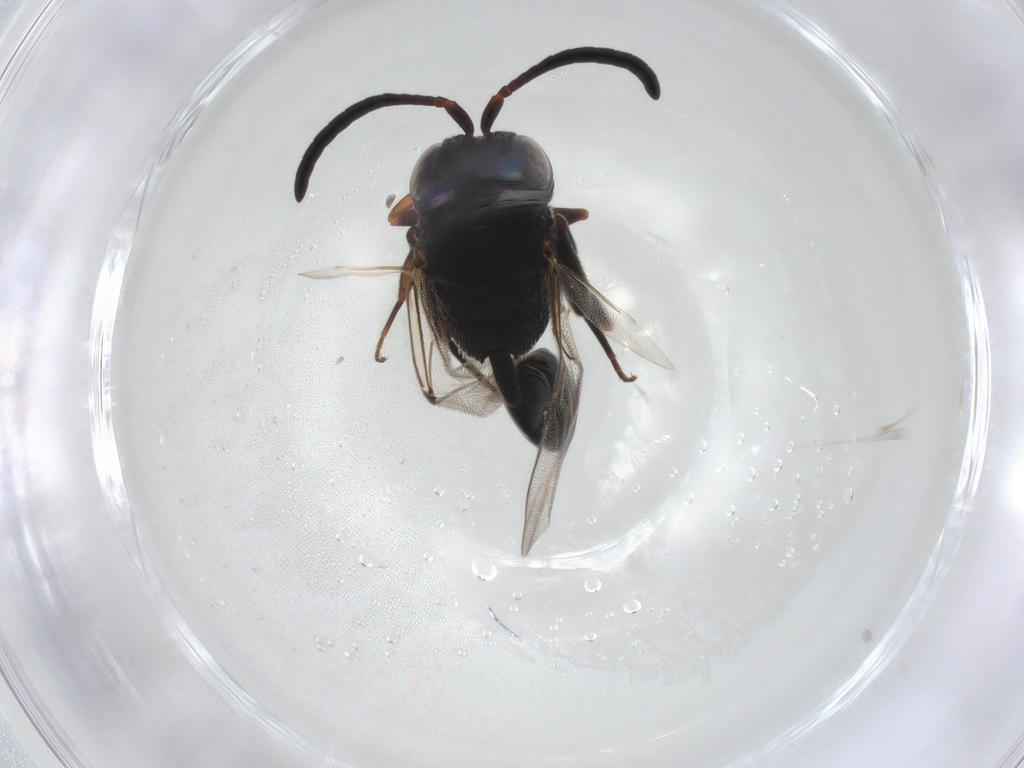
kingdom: Animalia
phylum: Arthropoda
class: Insecta
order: Hymenoptera
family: Evaniidae
